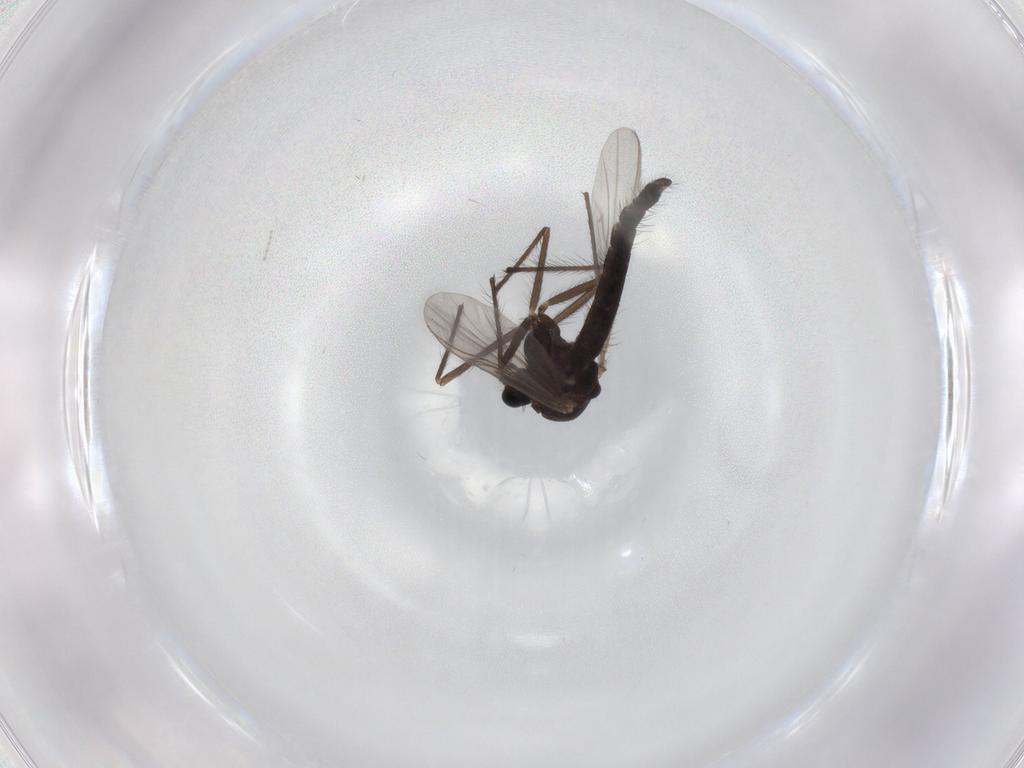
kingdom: Animalia
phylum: Arthropoda
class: Insecta
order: Diptera
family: Chironomidae
